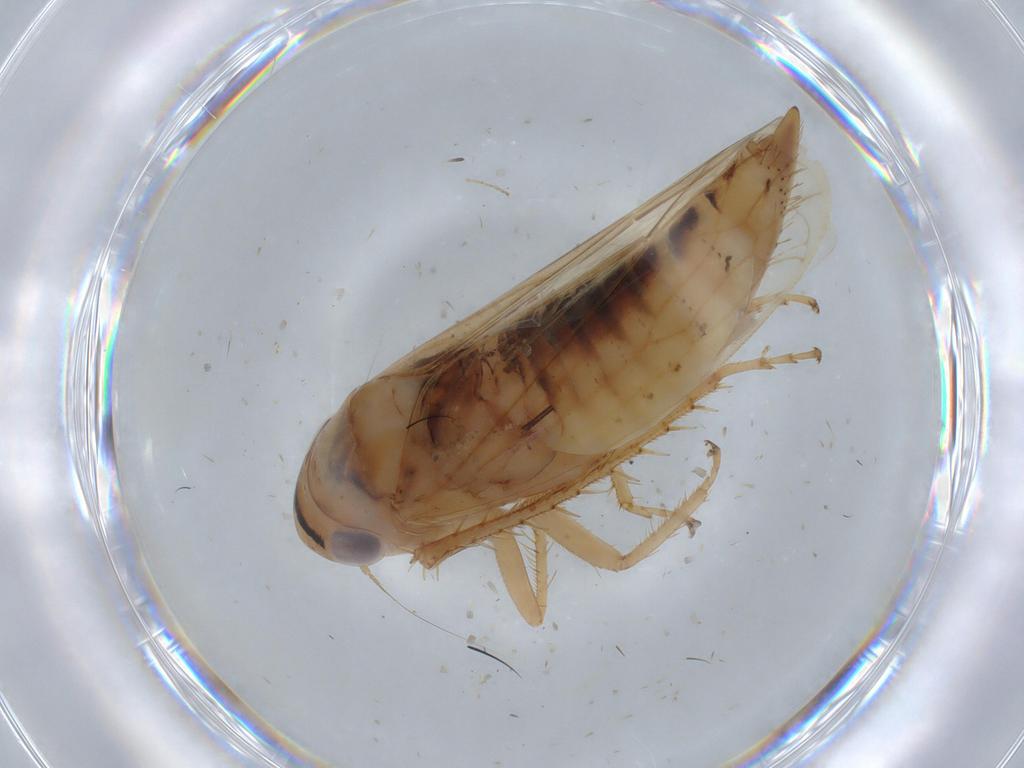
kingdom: Animalia
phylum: Arthropoda
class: Insecta
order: Hemiptera
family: Cicadellidae
